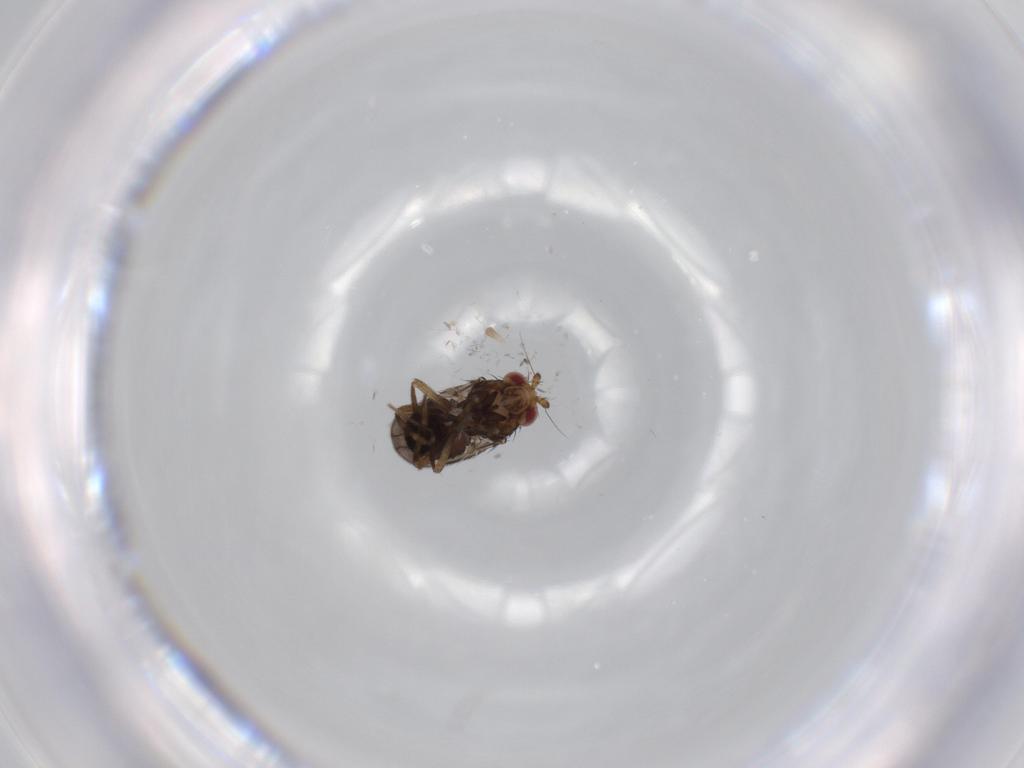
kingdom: Animalia
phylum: Arthropoda
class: Insecta
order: Diptera
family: Sphaeroceridae
